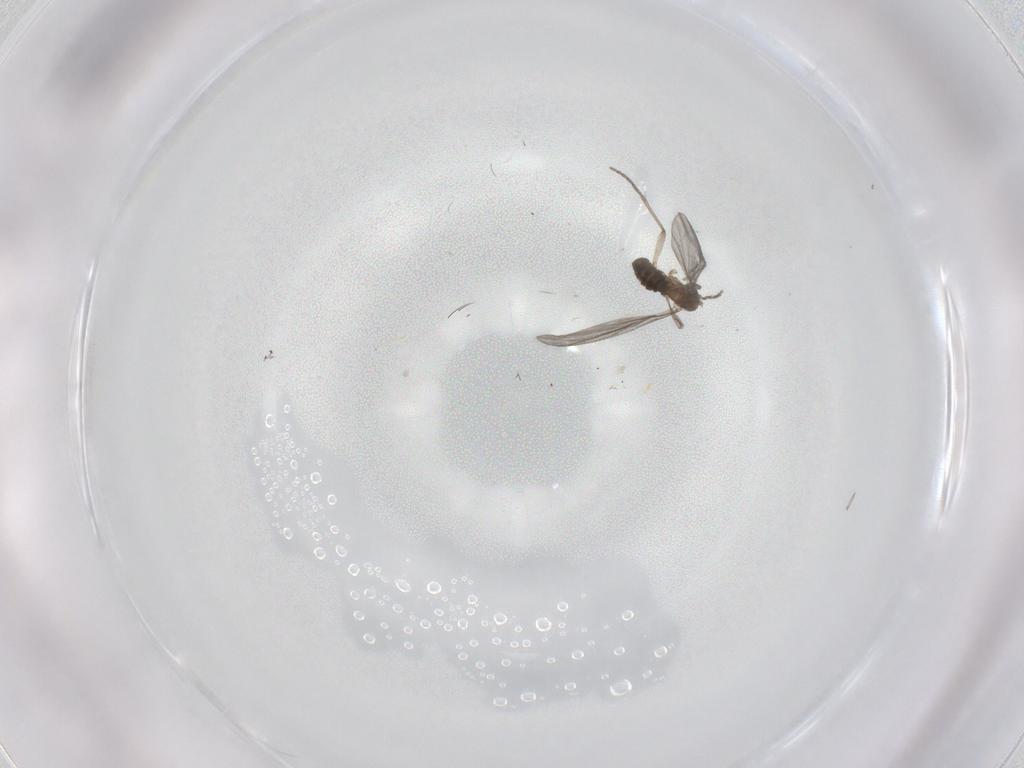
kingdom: Animalia
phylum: Arthropoda
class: Insecta
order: Diptera
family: Sciaridae
